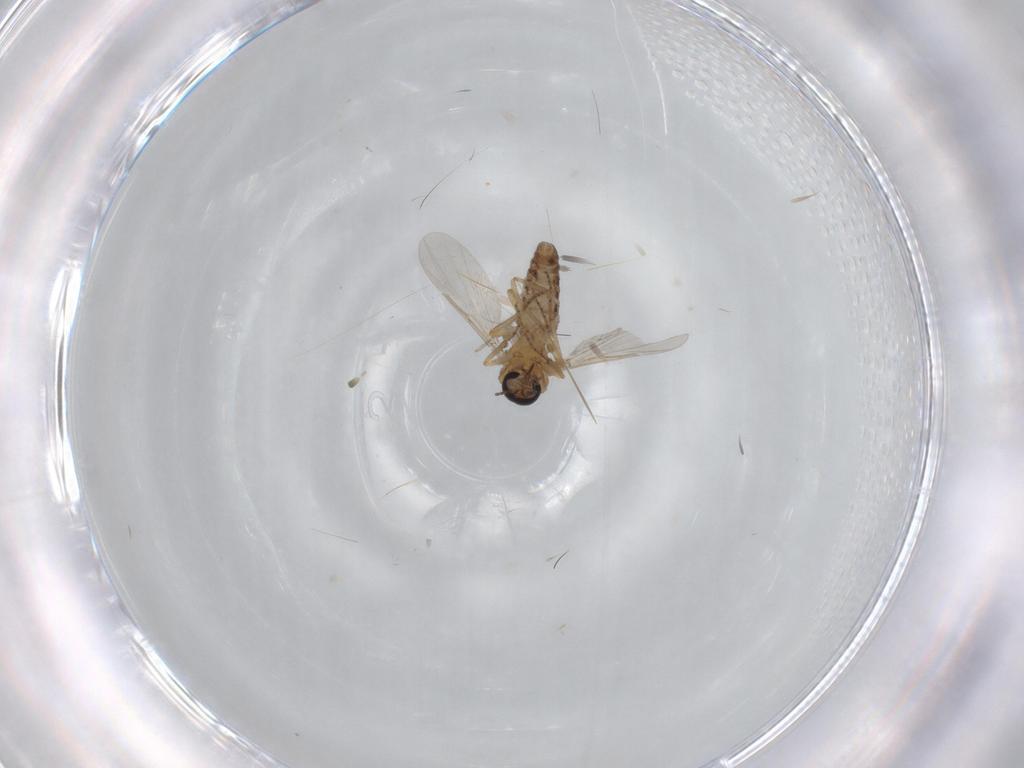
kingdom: Animalia
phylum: Arthropoda
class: Insecta
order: Diptera
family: Ceratopogonidae
